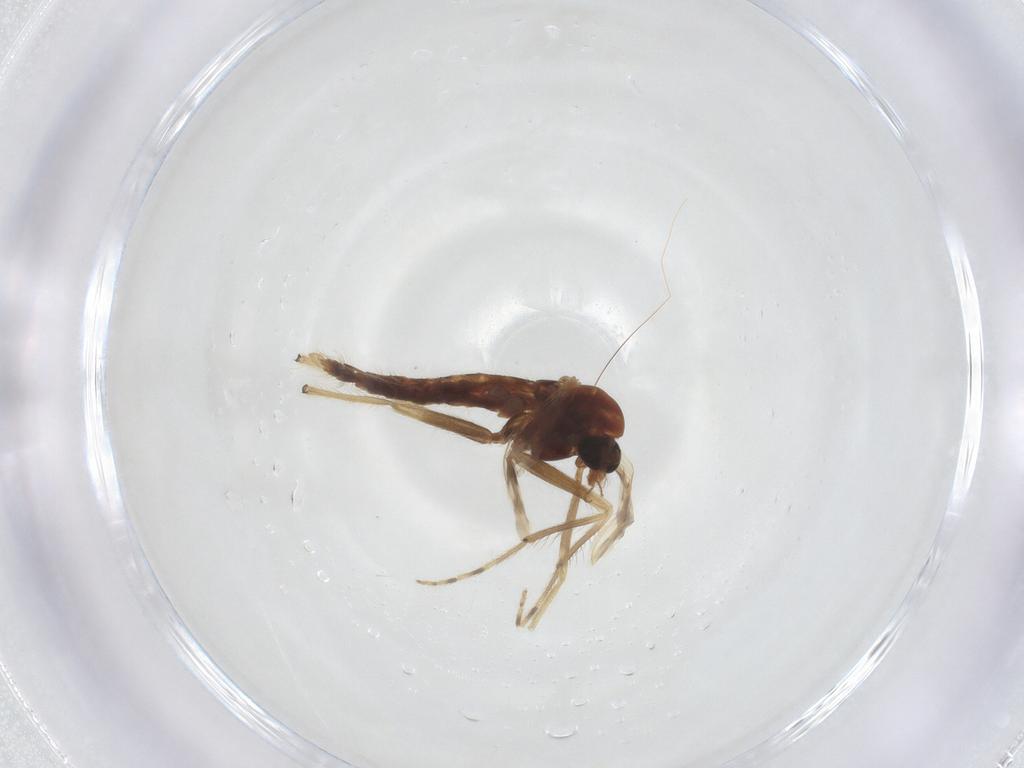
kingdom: Animalia
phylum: Arthropoda
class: Insecta
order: Diptera
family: Chironomidae
